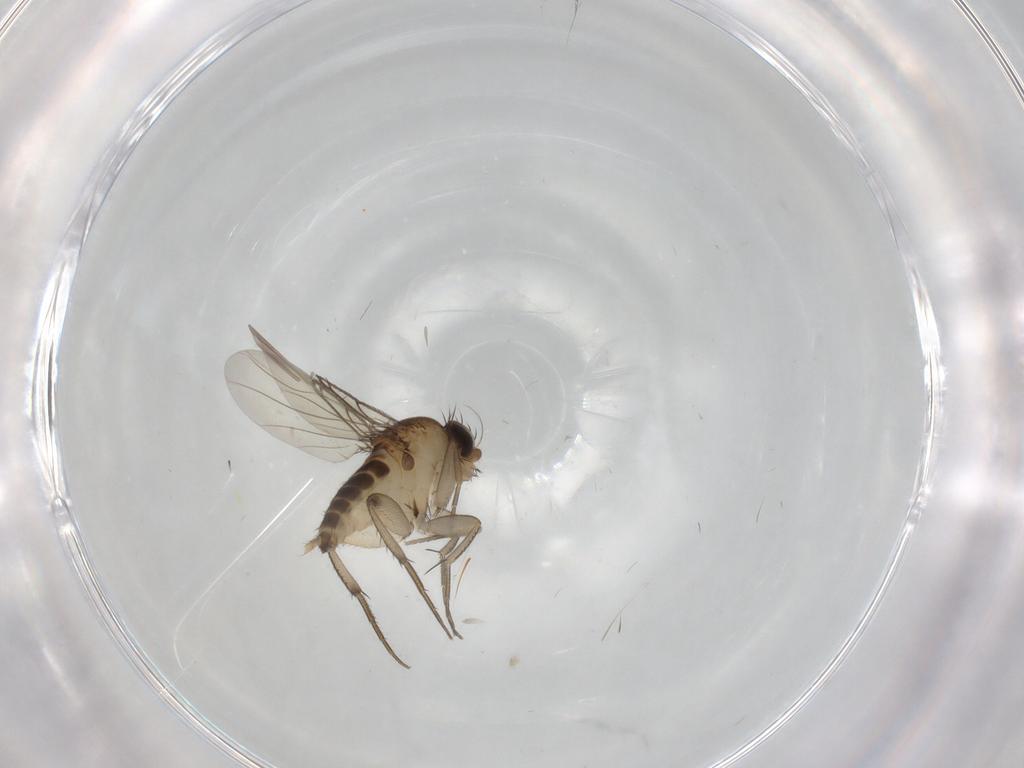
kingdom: Animalia
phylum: Arthropoda
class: Insecta
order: Diptera
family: Phoridae
